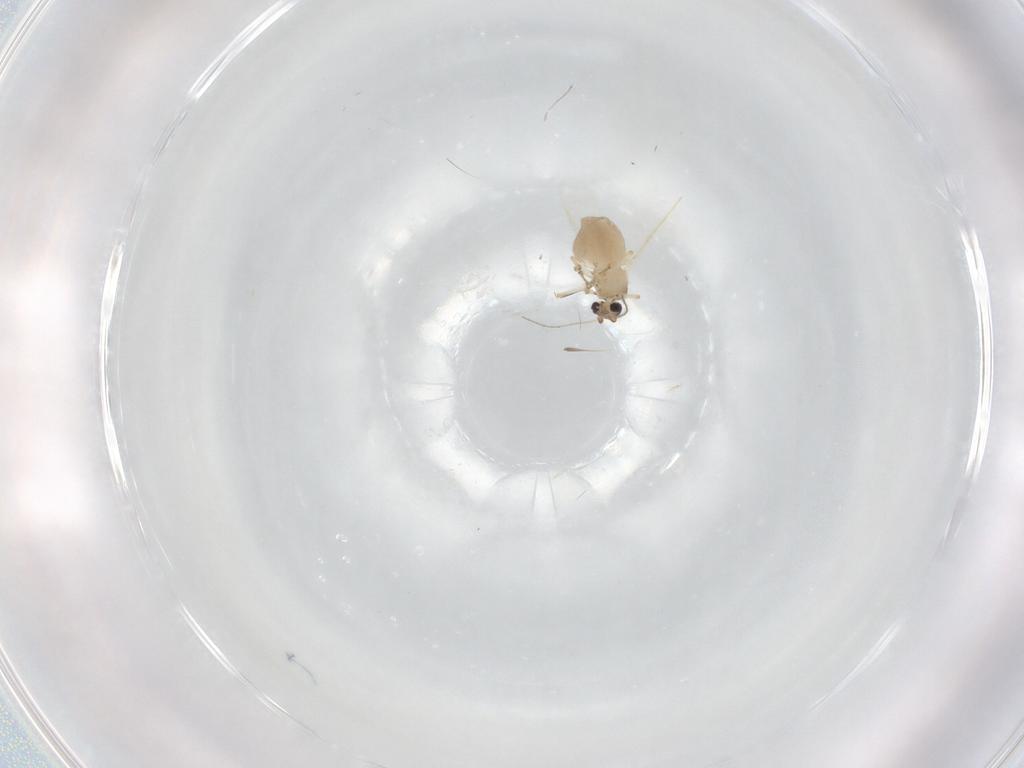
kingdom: Animalia
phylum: Arthropoda
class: Insecta
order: Diptera
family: Ceratopogonidae
